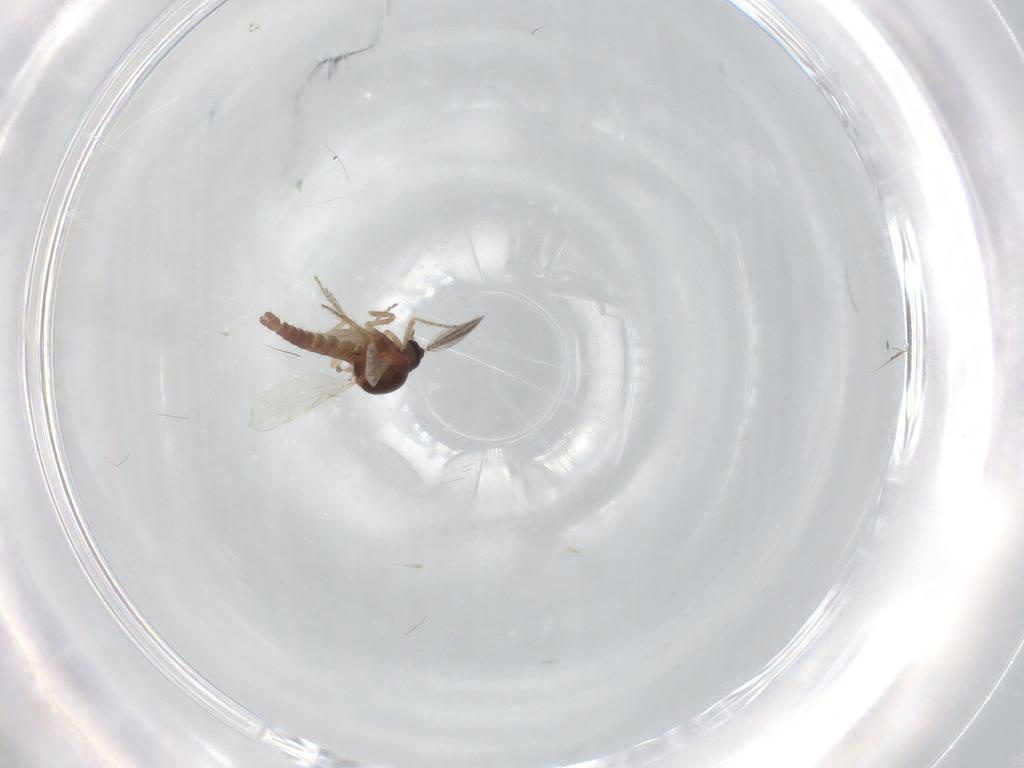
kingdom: Animalia
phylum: Arthropoda
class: Insecta
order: Diptera
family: Ceratopogonidae
